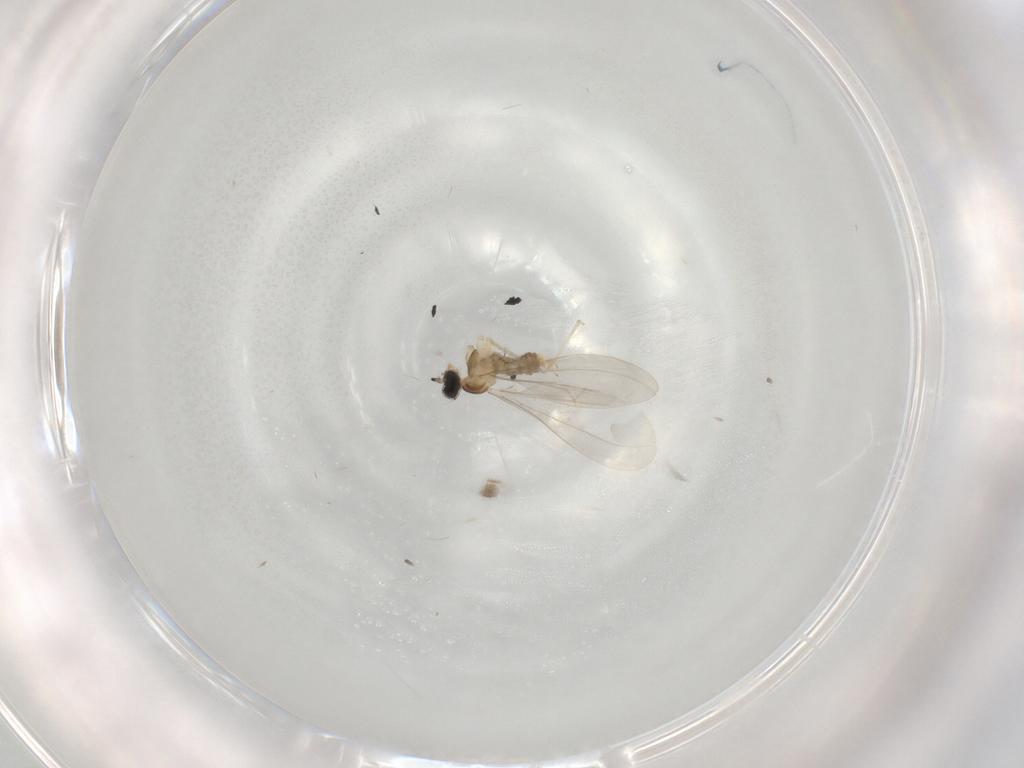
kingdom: Animalia
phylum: Arthropoda
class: Insecta
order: Diptera
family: Cecidomyiidae
